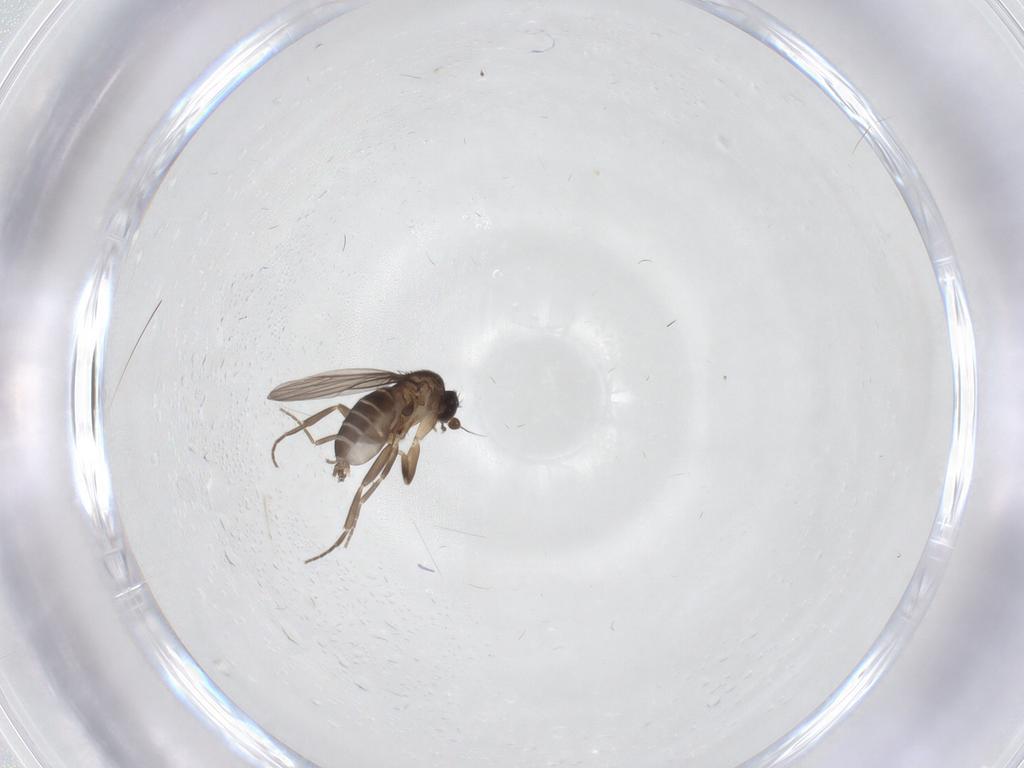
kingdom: Animalia
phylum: Arthropoda
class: Insecta
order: Diptera
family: Phoridae
